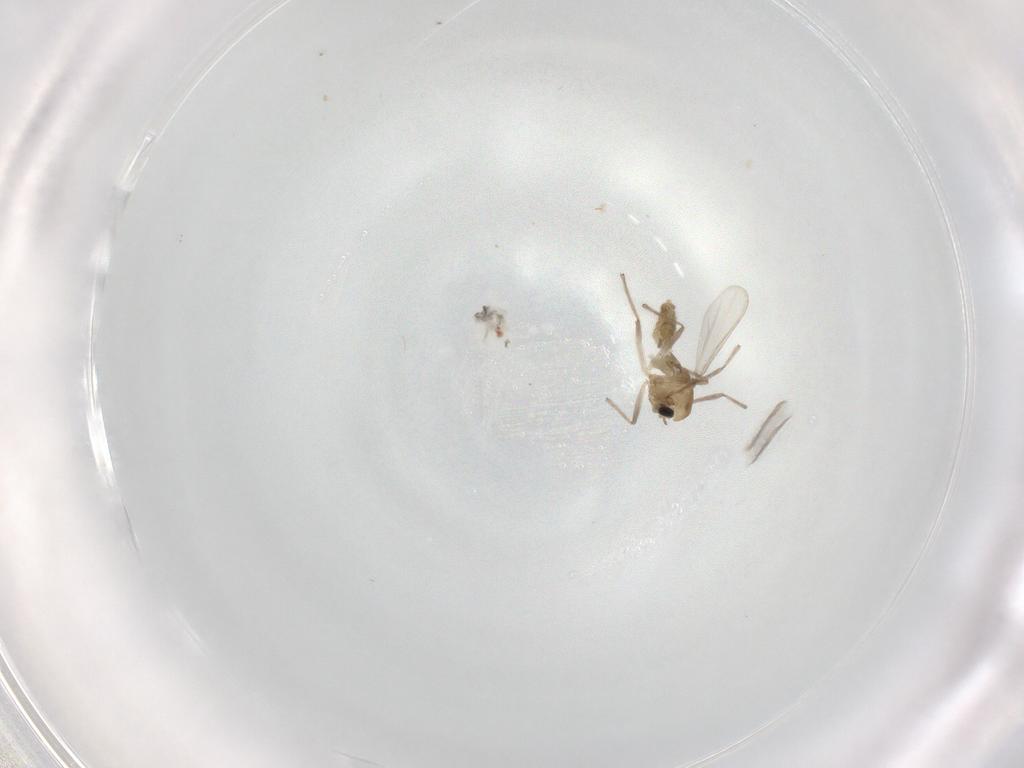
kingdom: Animalia
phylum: Arthropoda
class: Insecta
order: Diptera
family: Chironomidae
